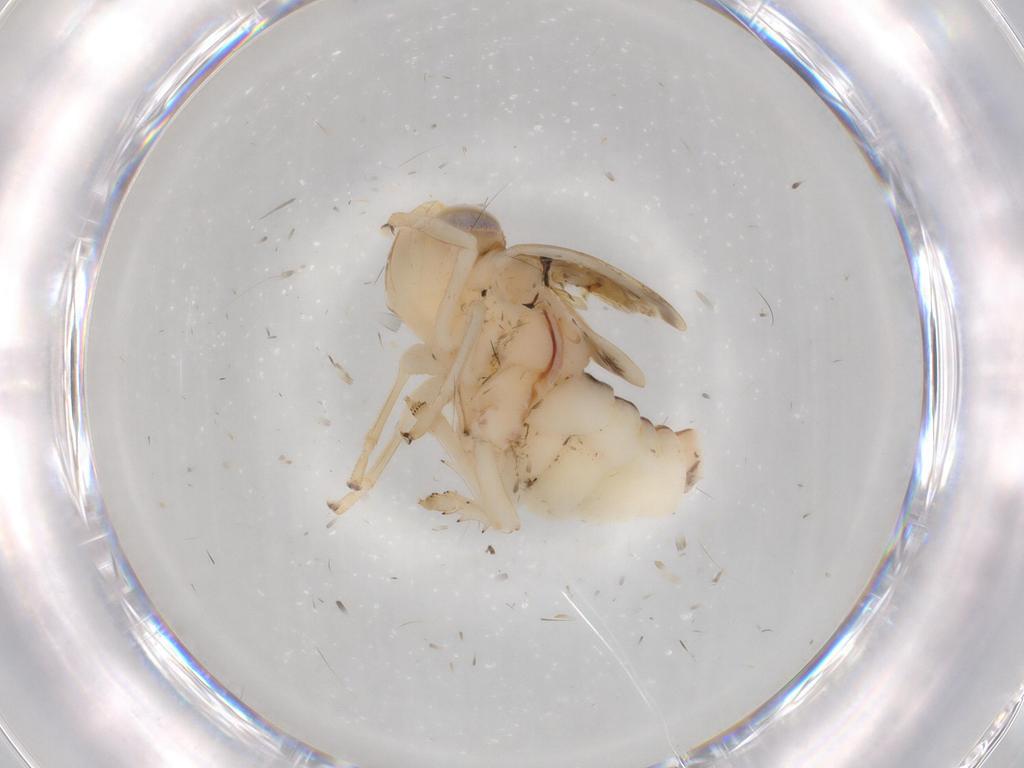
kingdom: Animalia
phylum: Arthropoda
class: Insecta
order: Hemiptera
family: Nogodinidae
